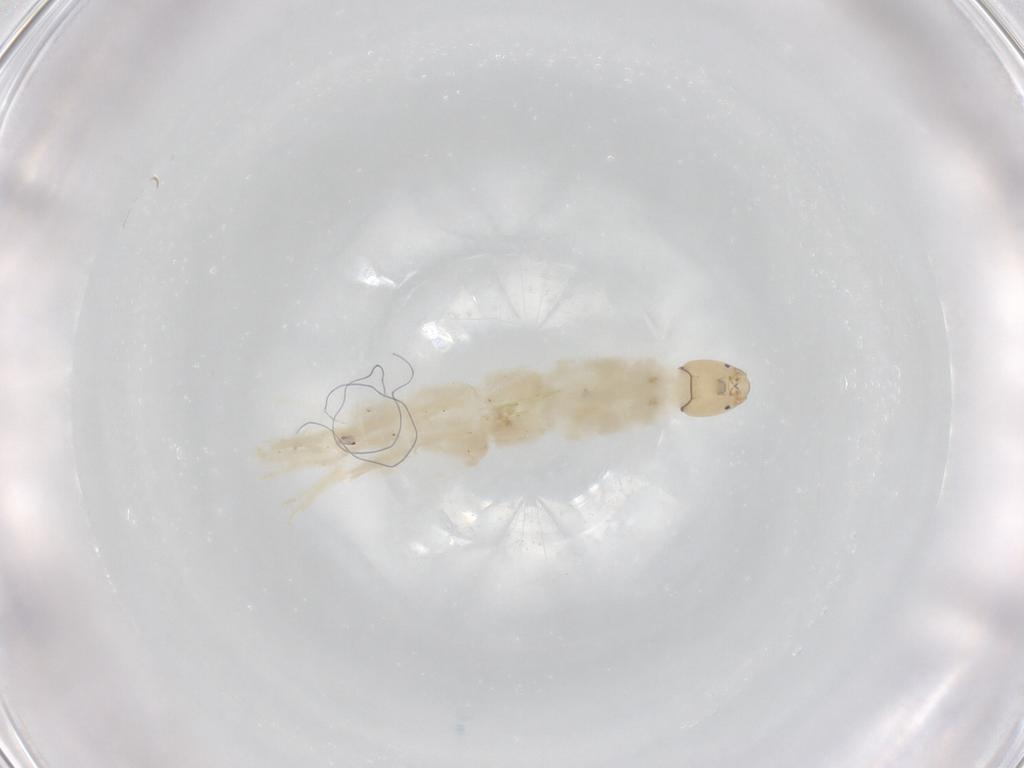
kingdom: Animalia
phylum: Arthropoda
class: Insecta
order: Diptera
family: Chironomidae
